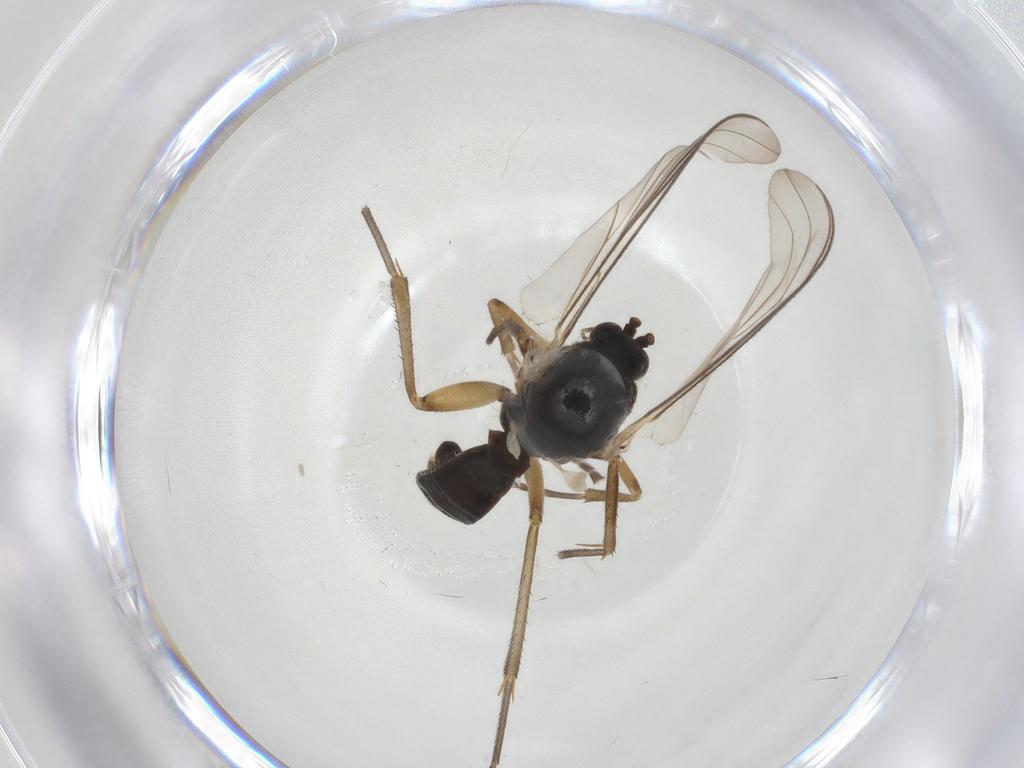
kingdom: Animalia
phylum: Arthropoda
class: Insecta
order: Diptera
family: Mycetophilidae
